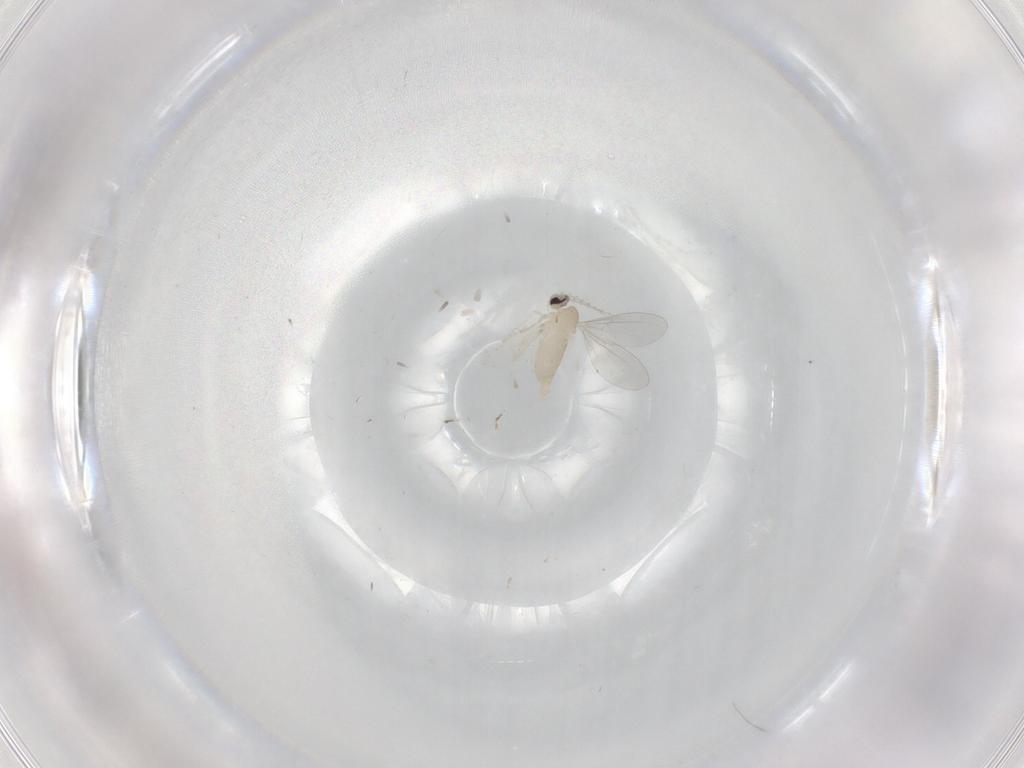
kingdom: Animalia
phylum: Arthropoda
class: Insecta
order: Diptera
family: Cecidomyiidae
